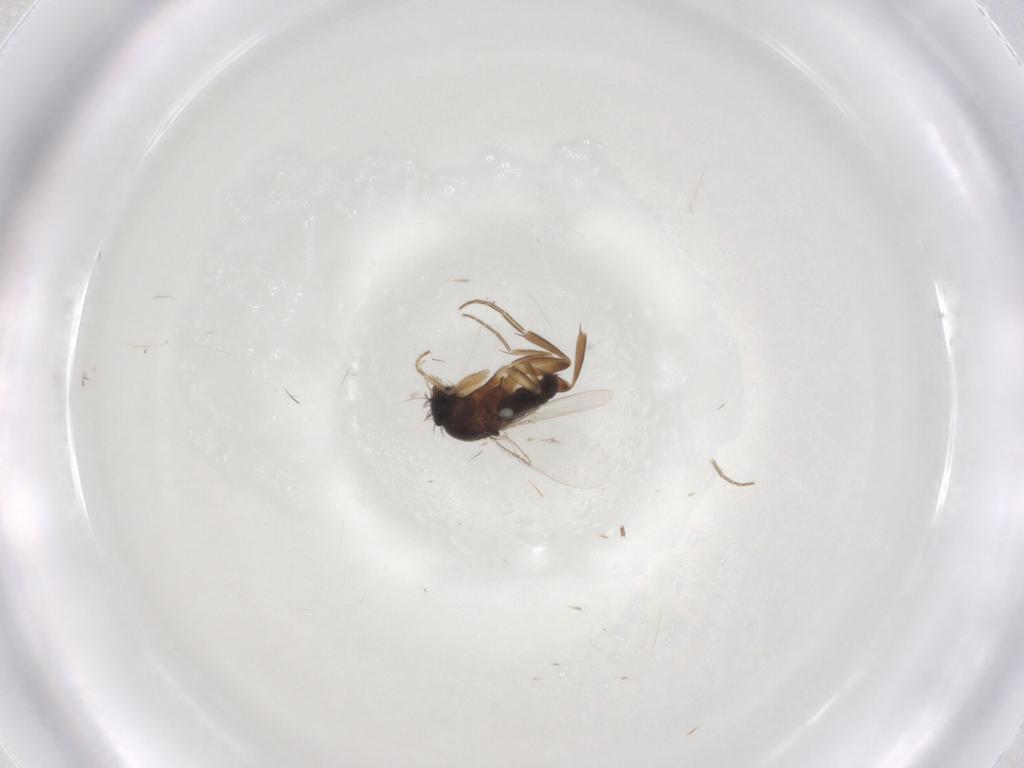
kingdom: Animalia
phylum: Arthropoda
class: Insecta
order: Diptera
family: Phoridae
